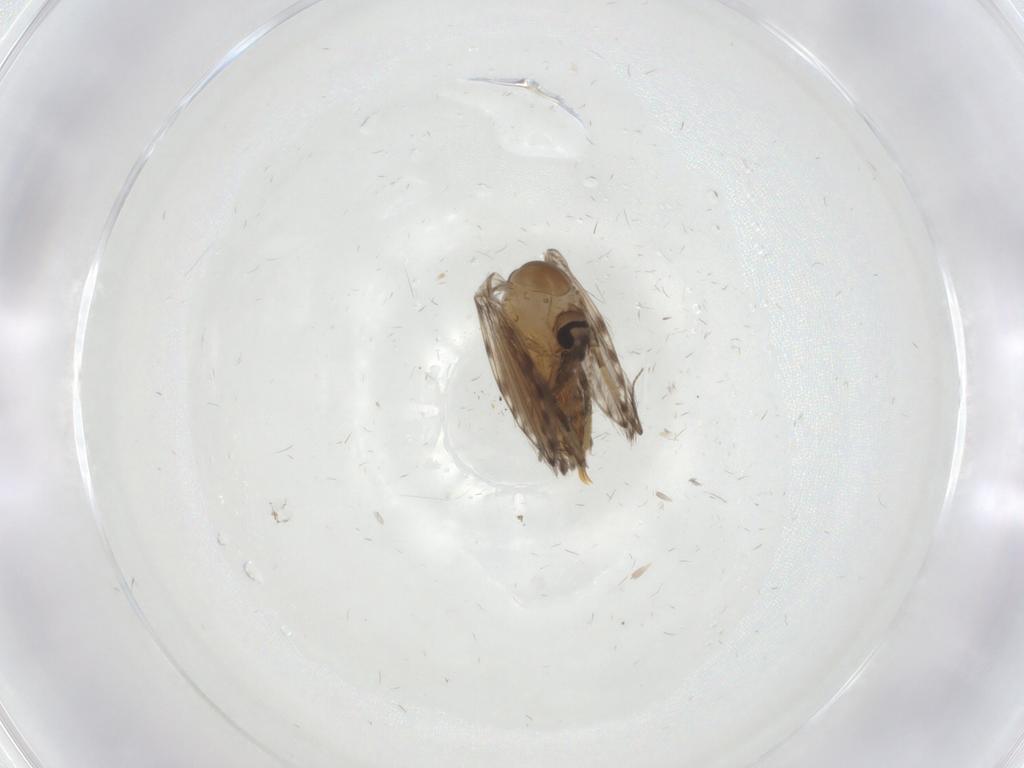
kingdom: Animalia
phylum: Arthropoda
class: Insecta
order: Diptera
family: Psychodidae
